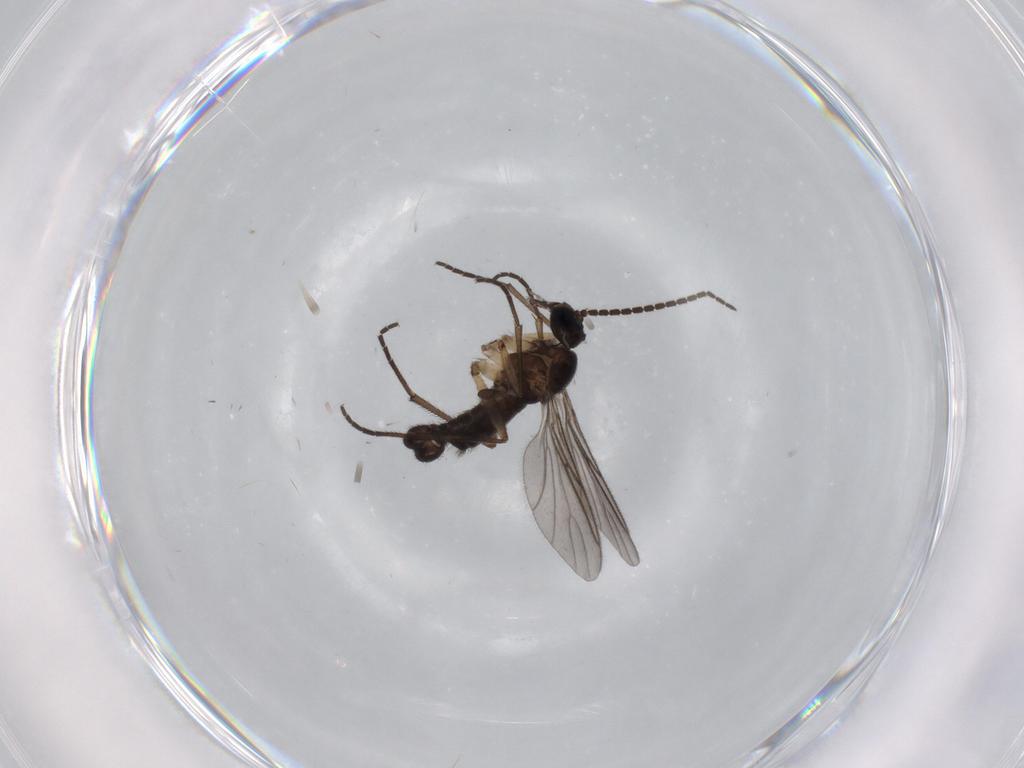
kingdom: Animalia
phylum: Arthropoda
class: Insecta
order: Diptera
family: Sciaridae
